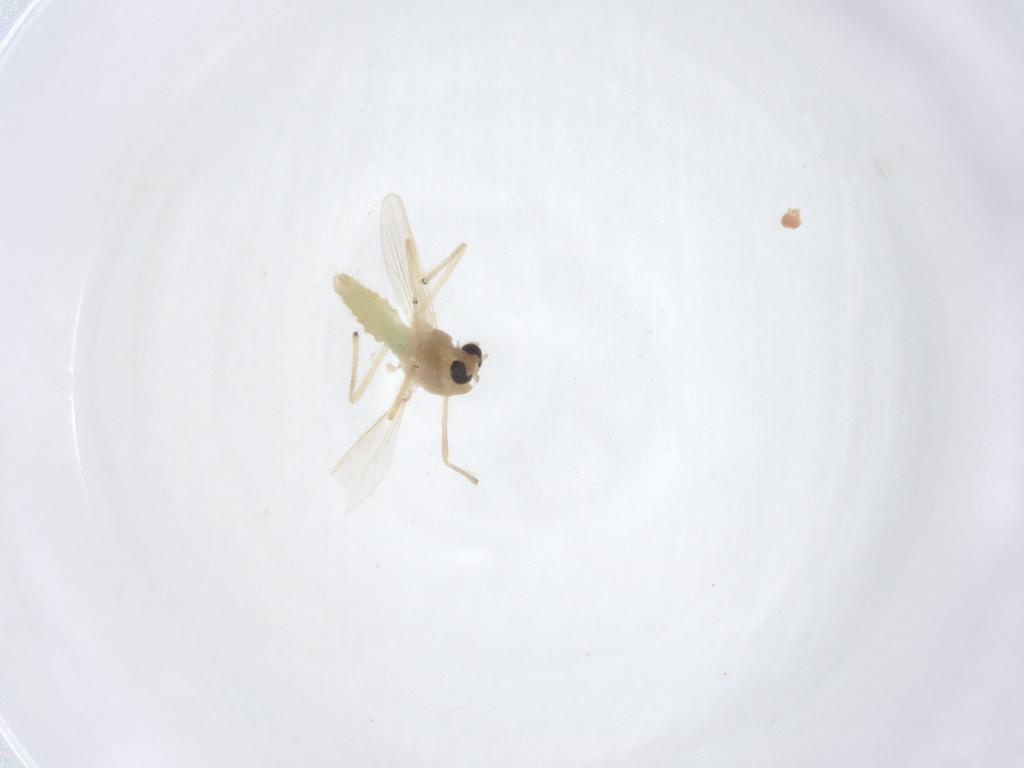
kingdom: Animalia
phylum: Arthropoda
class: Insecta
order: Diptera
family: Chironomidae
